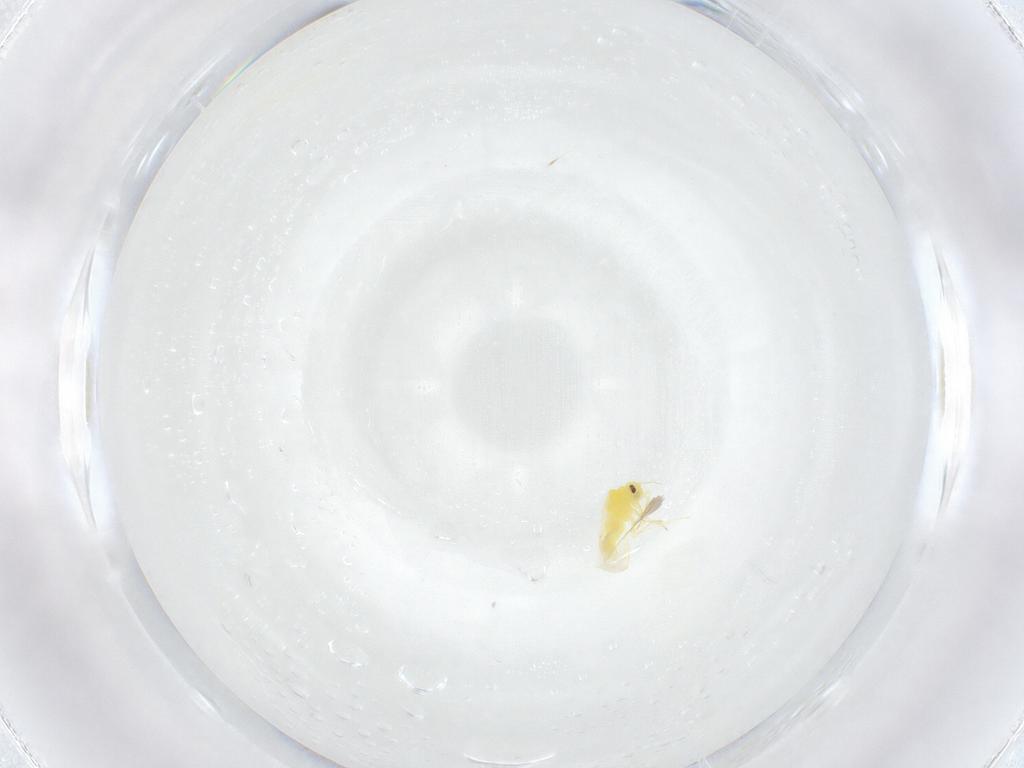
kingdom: Animalia
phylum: Arthropoda
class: Insecta
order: Hemiptera
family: Aleyrodidae
